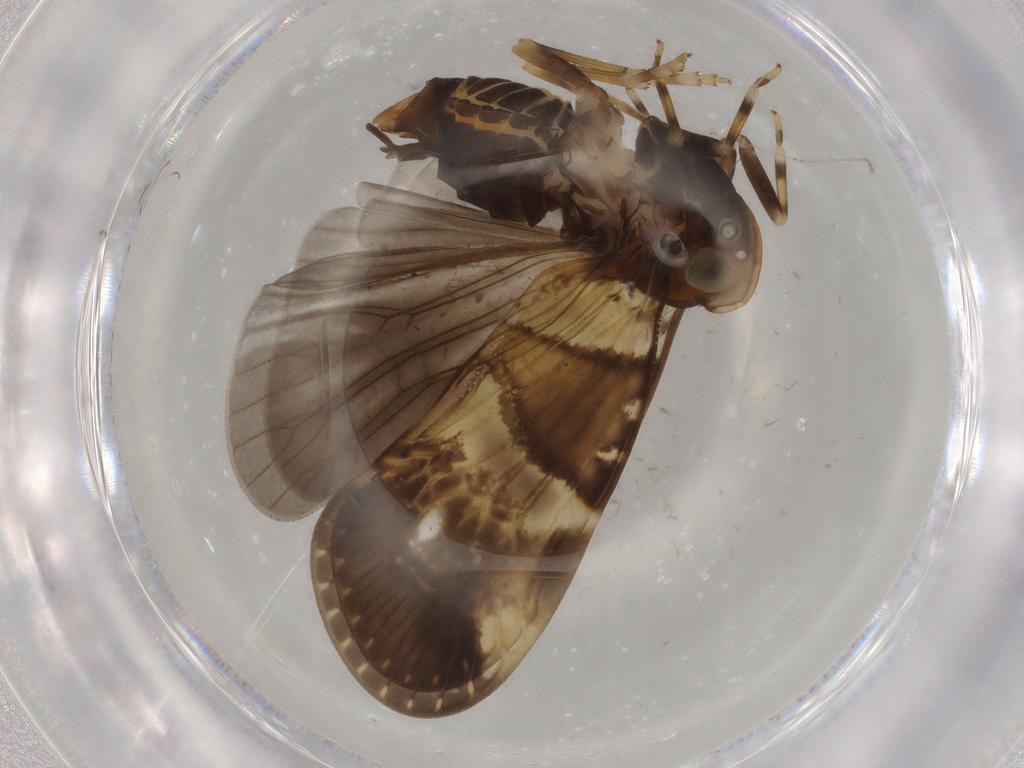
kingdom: Animalia
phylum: Arthropoda
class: Insecta
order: Hemiptera
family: Cixiidae
